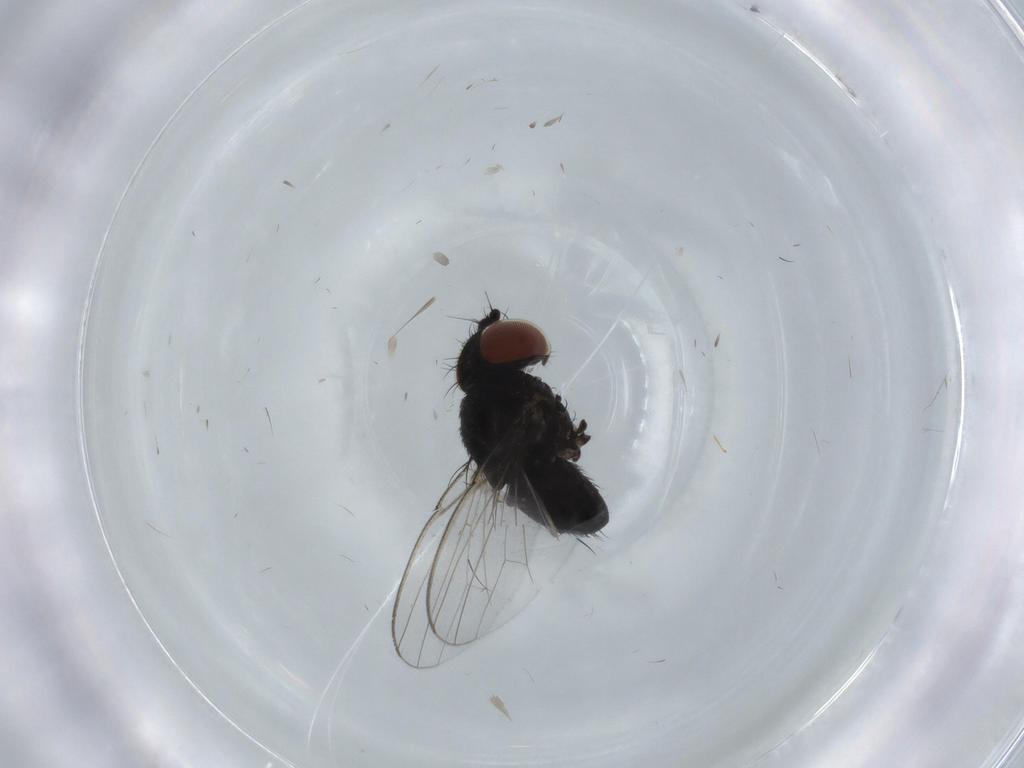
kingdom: Animalia
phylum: Arthropoda
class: Insecta
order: Diptera
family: Milichiidae
